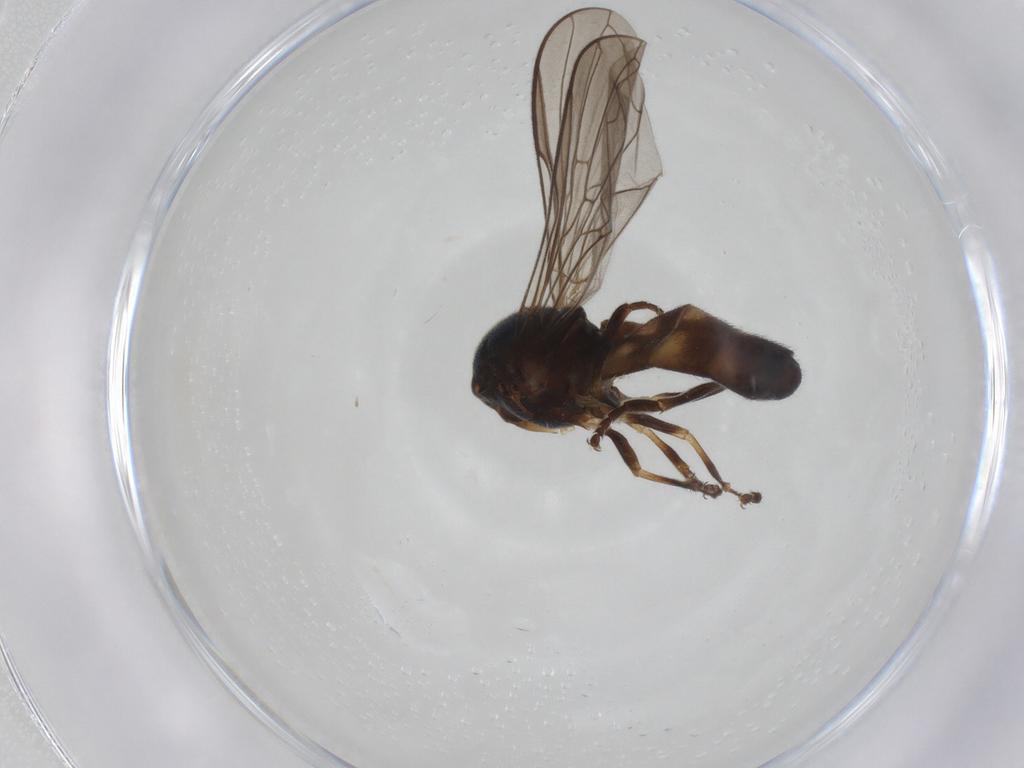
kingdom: Animalia
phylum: Arthropoda
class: Insecta
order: Diptera
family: Syrphidae
